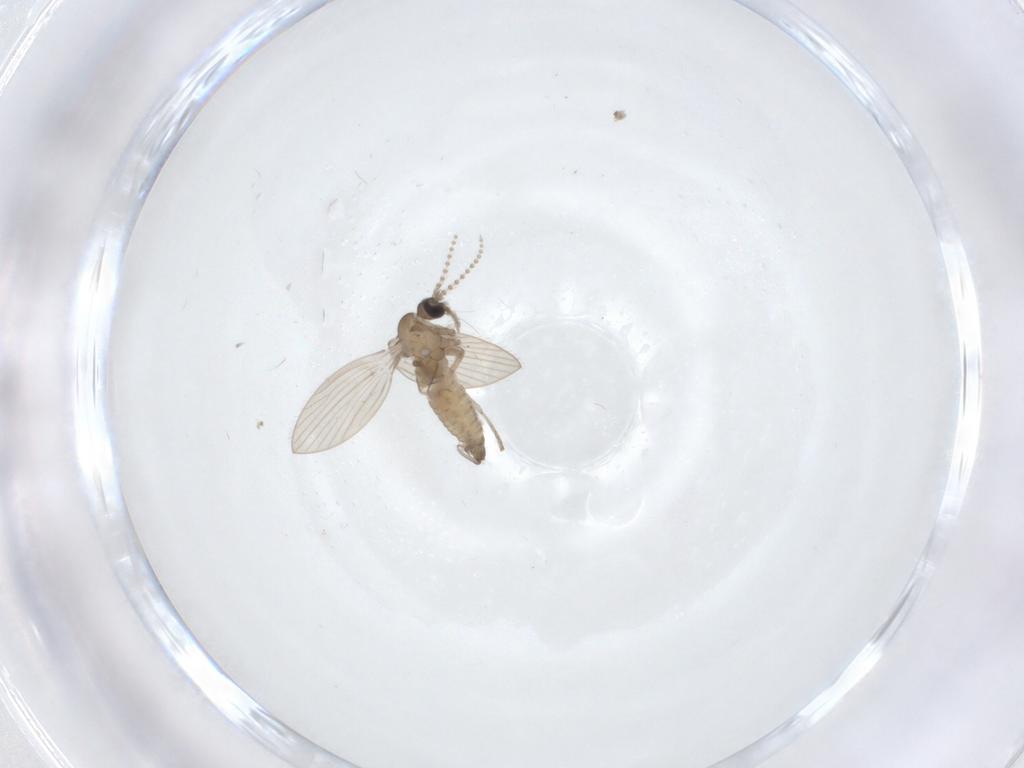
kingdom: Animalia
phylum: Arthropoda
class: Insecta
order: Diptera
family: Psychodidae
